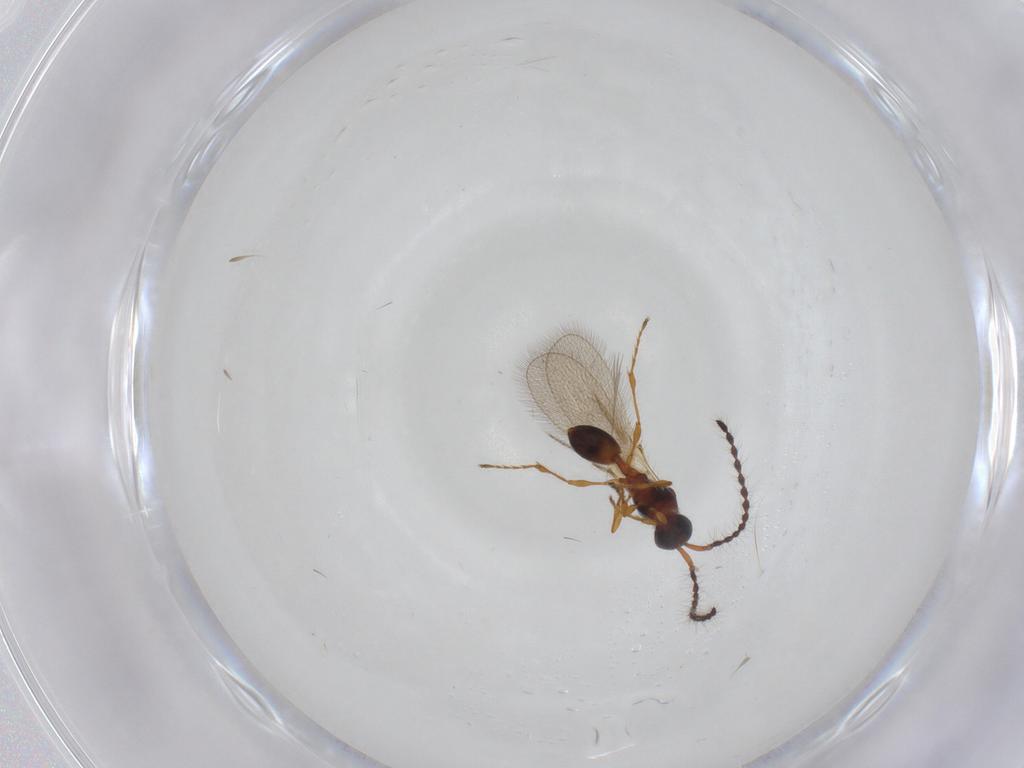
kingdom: Animalia
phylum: Arthropoda
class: Insecta
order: Hymenoptera
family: Diapriidae
